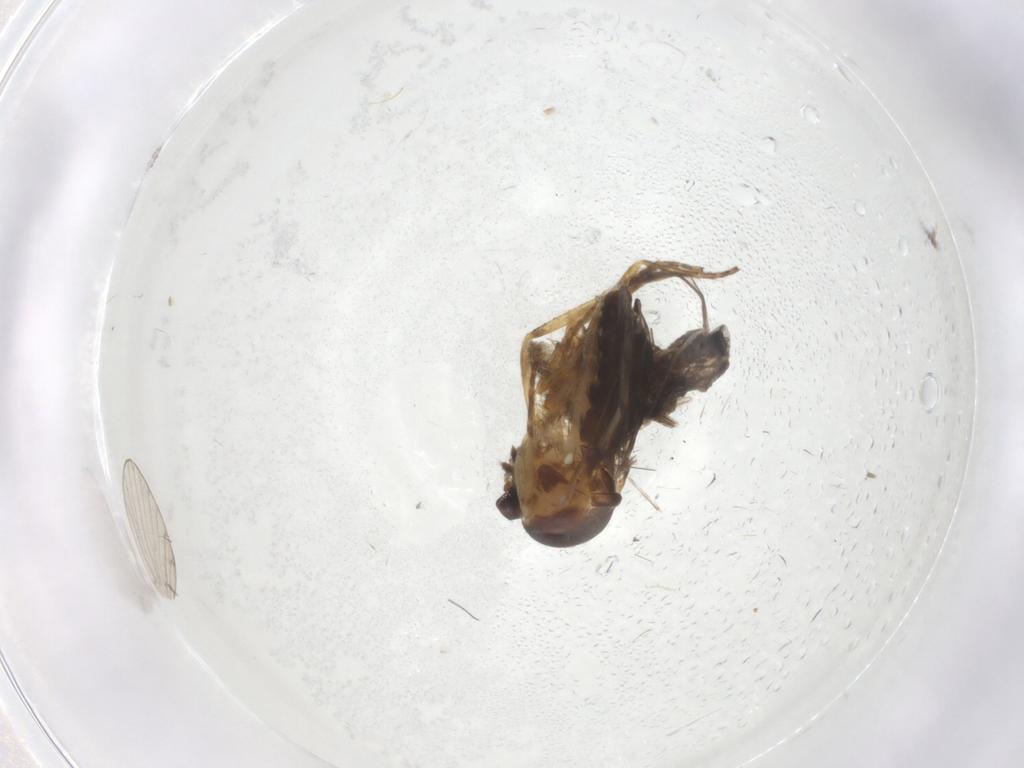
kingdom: Animalia
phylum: Arthropoda
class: Insecta
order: Diptera
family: Ceratopogonidae
